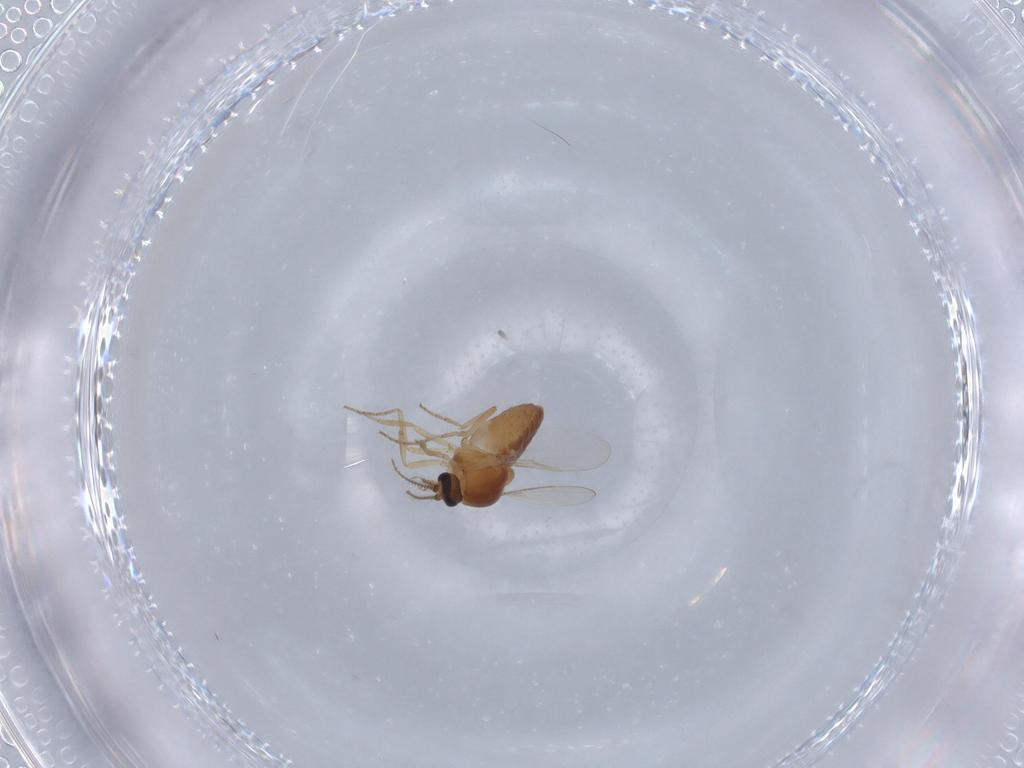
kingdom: Animalia
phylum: Arthropoda
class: Insecta
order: Diptera
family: Ceratopogonidae
